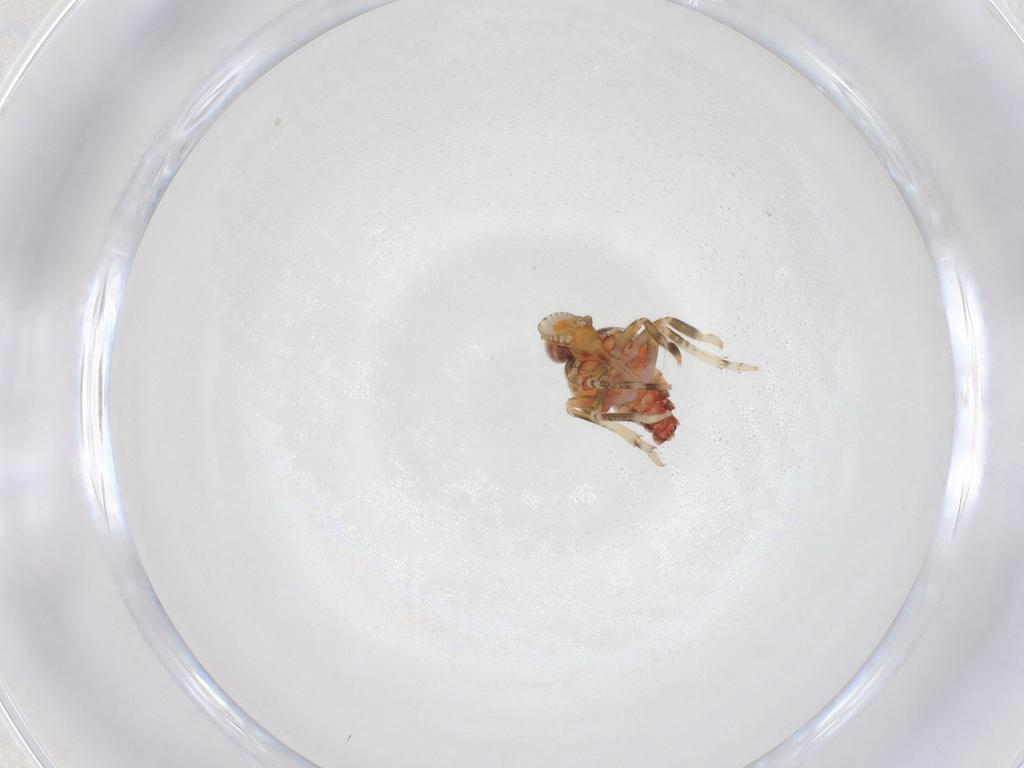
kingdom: Animalia
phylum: Arthropoda
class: Insecta
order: Hemiptera
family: Tropiduchidae
